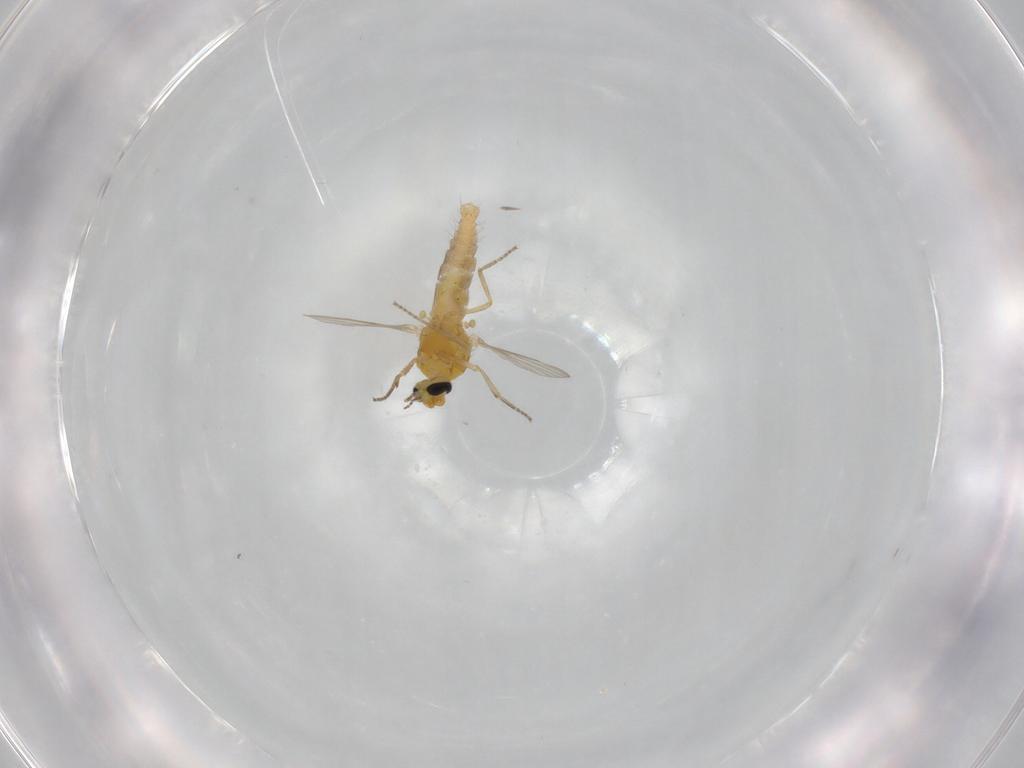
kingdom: Animalia
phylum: Arthropoda
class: Insecta
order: Diptera
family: Ceratopogonidae
